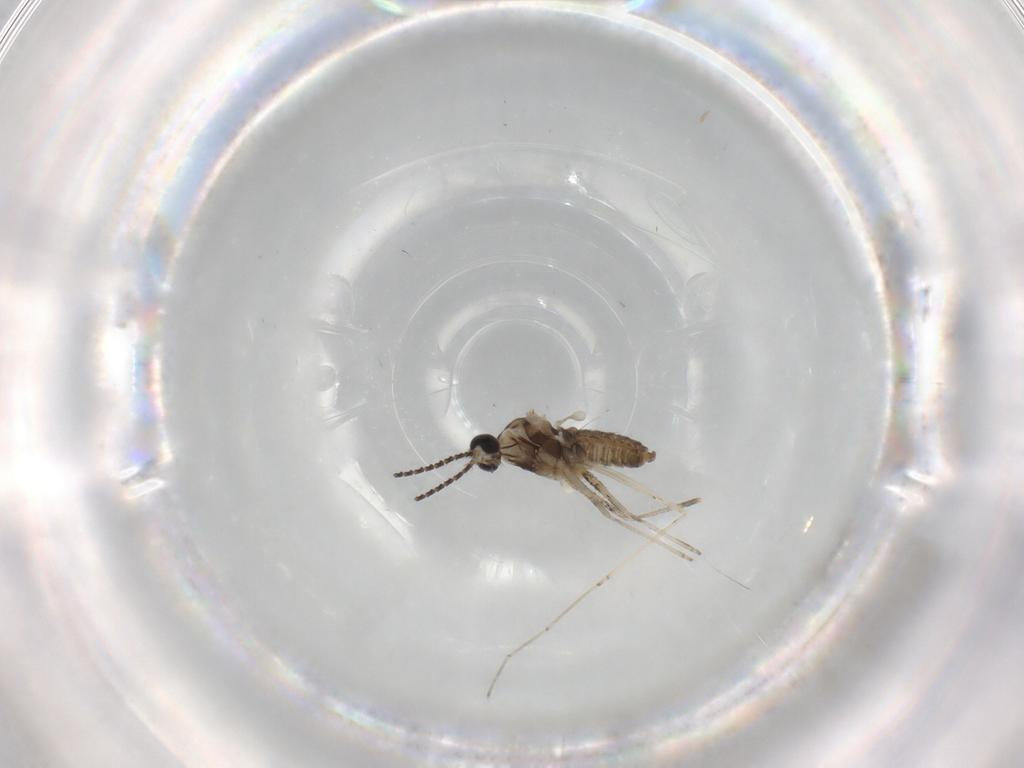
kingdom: Animalia
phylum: Arthropoda
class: Insecta
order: Diptera
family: Cecidomyiidae
